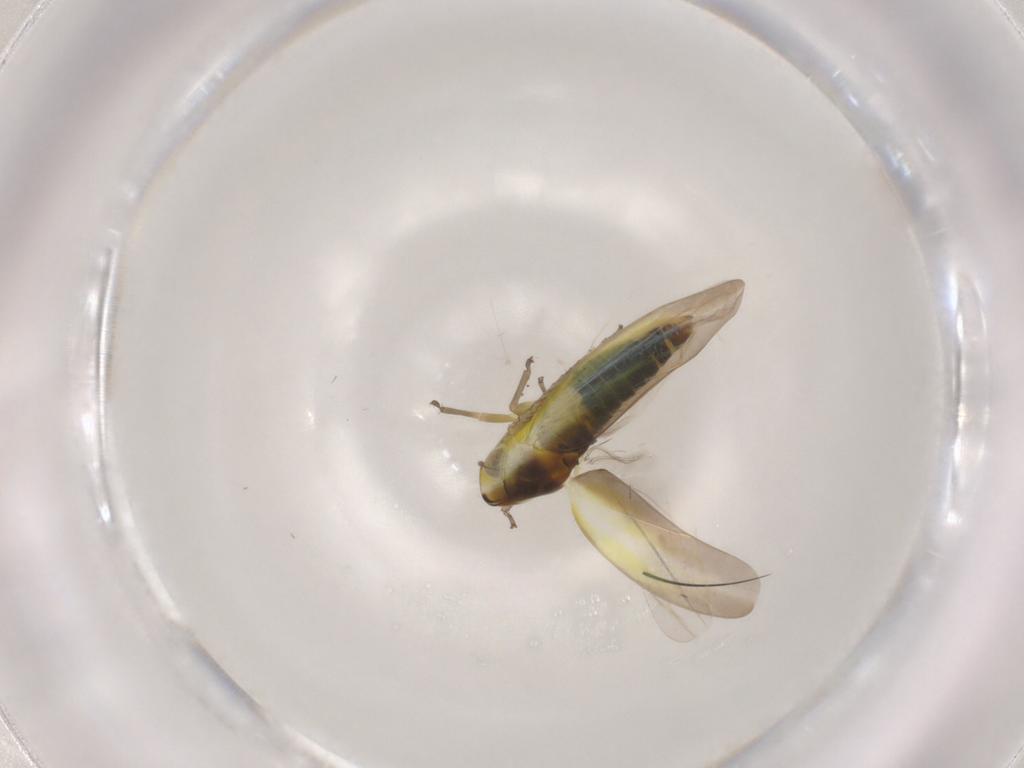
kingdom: Animalia
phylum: Arthropoda
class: Insecta
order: Hemiptera
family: Cicadellidae
